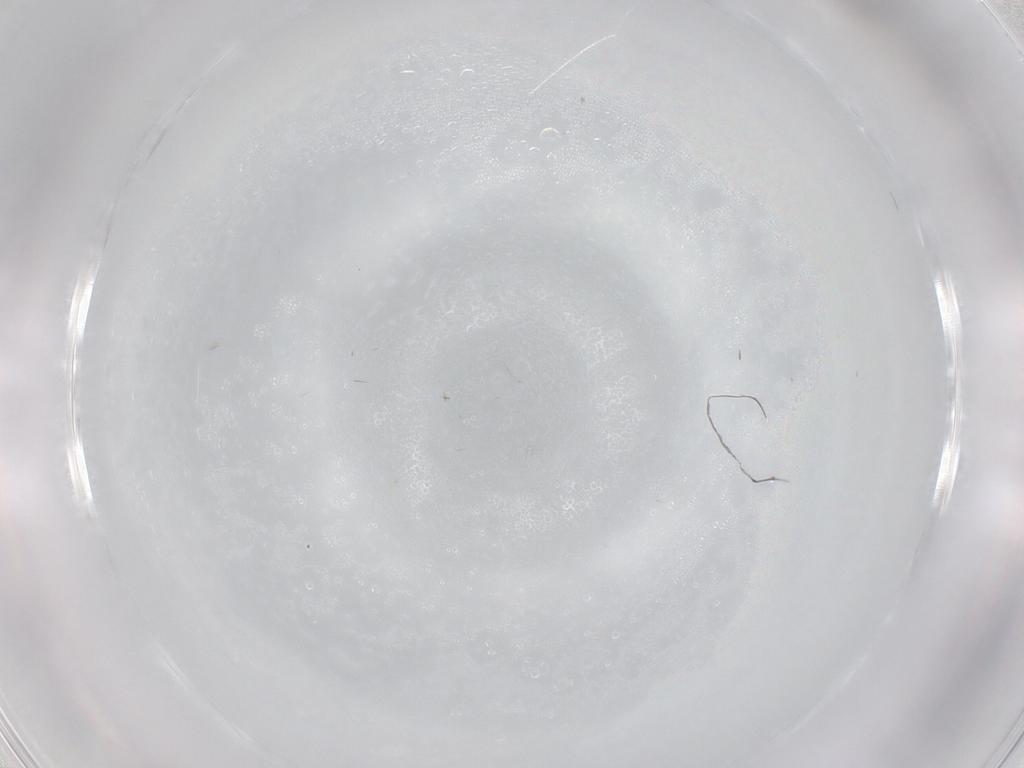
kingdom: Animalia
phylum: Arthropoda
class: Insecta
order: Diptera
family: Dolichopodidae
